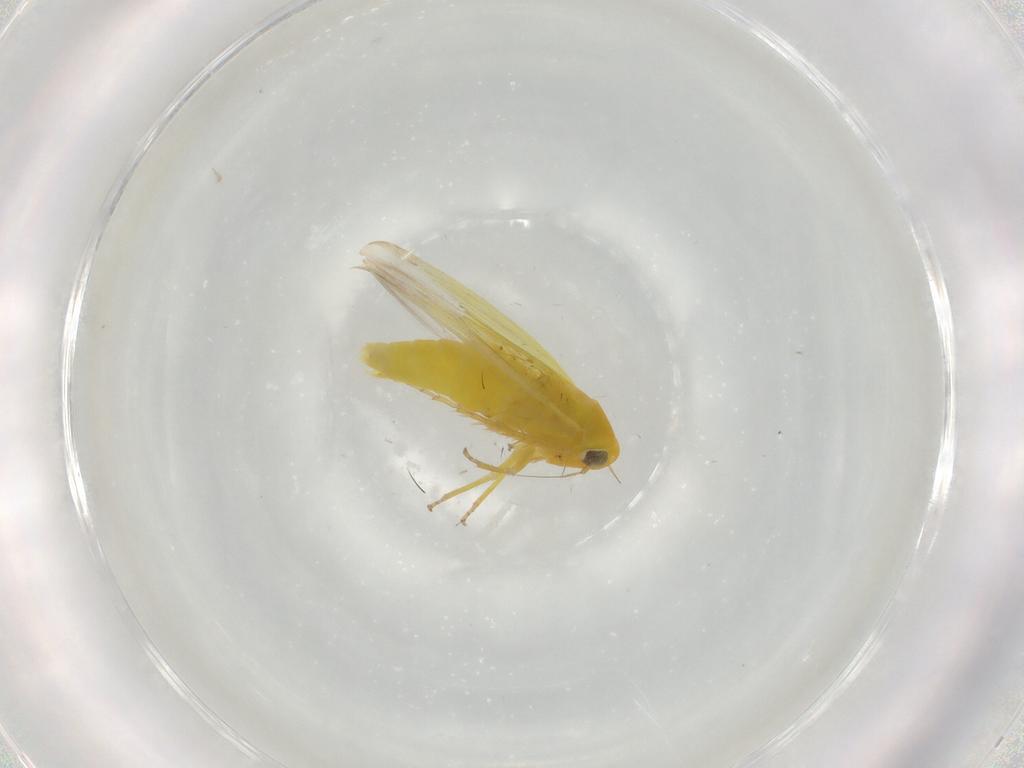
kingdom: Animalia
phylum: Arthropoda
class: Insecta
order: Hemiptera
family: Cicadellidae
